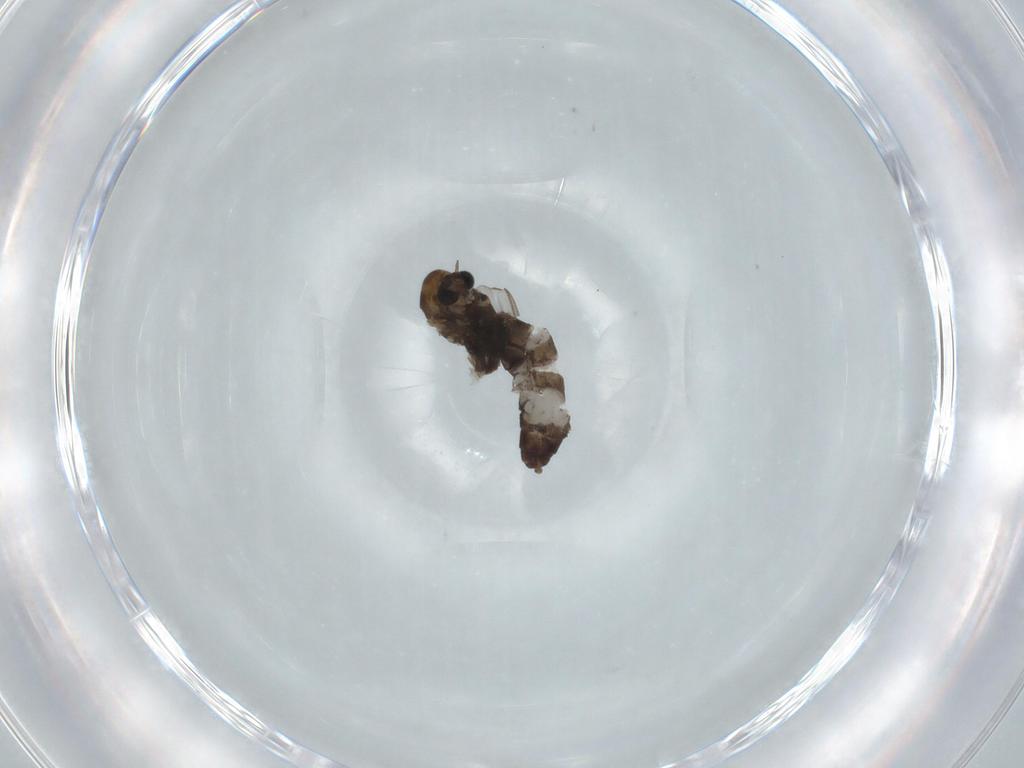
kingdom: Animalia
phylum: Arthropoda
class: Insecta
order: Diptera
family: Chironomidae
